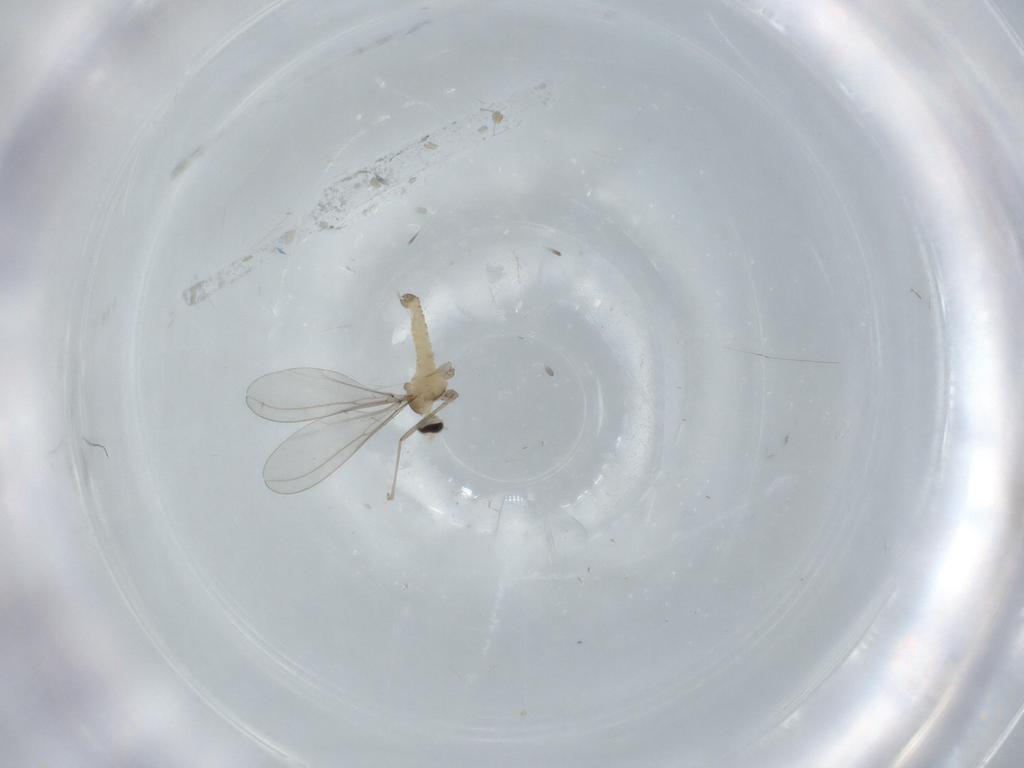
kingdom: Animalia
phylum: Arthropoda
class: Insecta
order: Diptera
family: Cecidomyiidae
